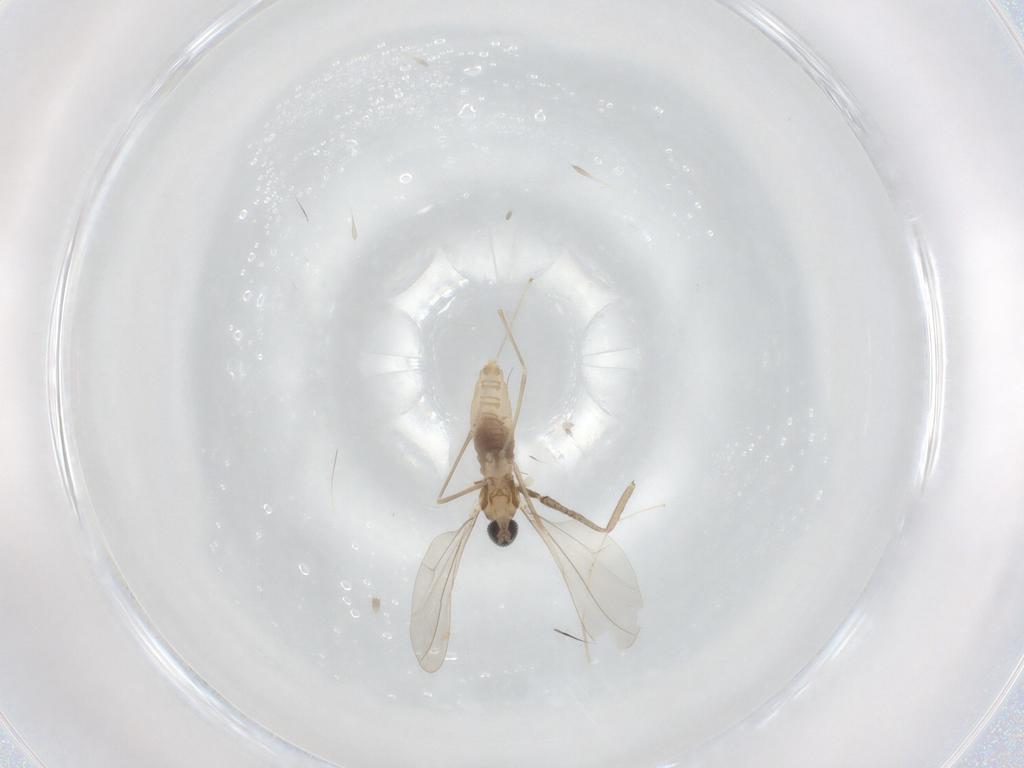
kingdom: Animalia
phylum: Arthropoda
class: Insecta
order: Diptera
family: Cecidomyiidae
